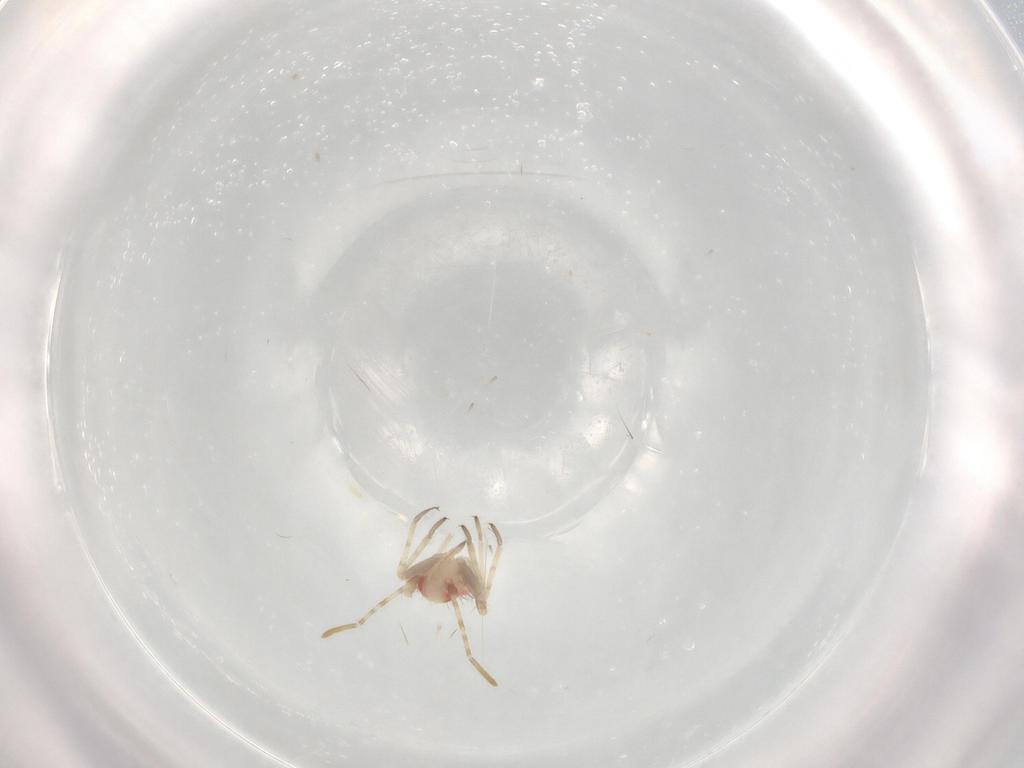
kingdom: Animalia
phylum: Arthropoda
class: Insecta
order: Hemiptera
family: Miridae
